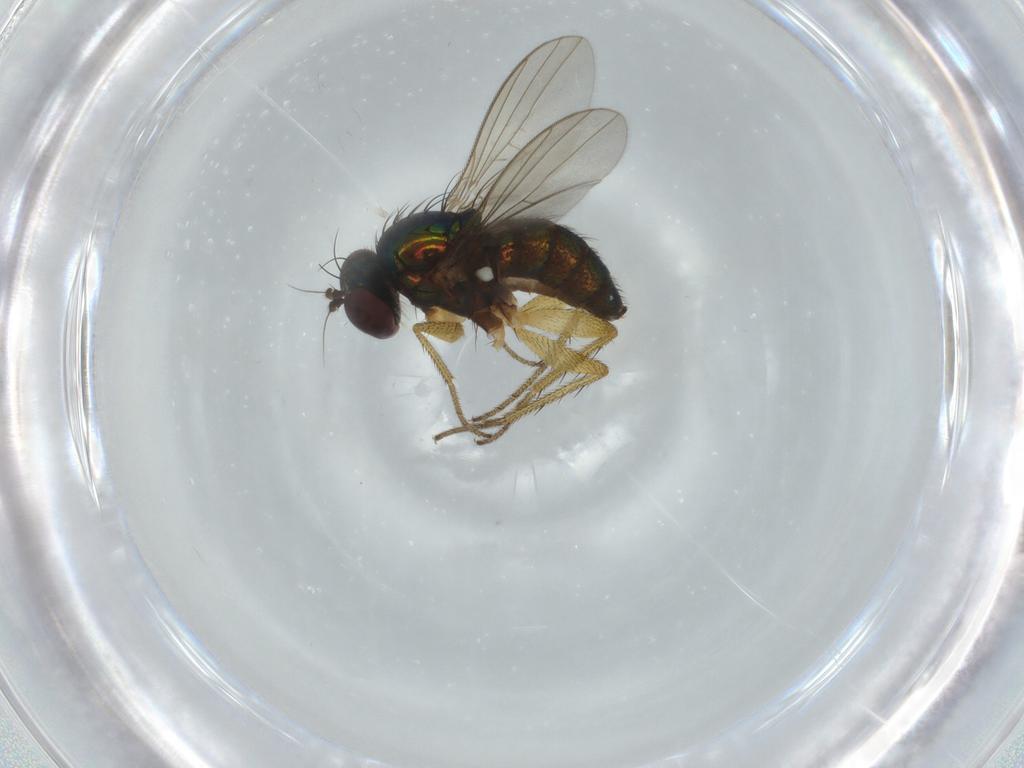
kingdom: Animalia
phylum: Arthropoda
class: Insecta
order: Diptera
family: Dolichopodidae
